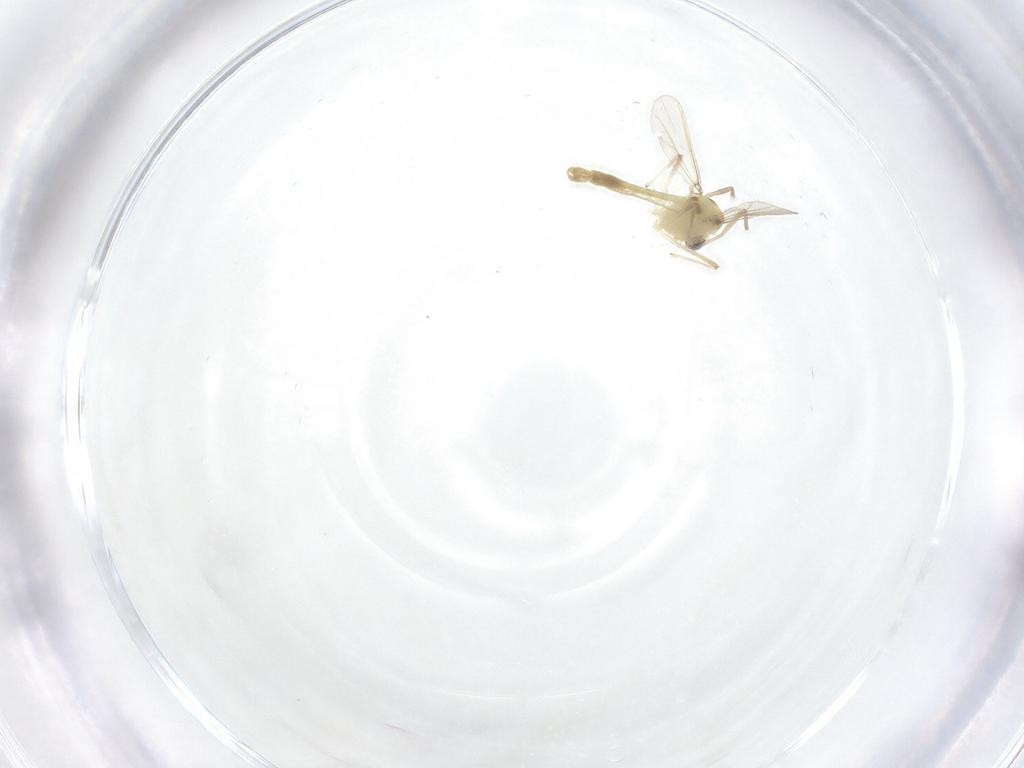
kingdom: Animalia
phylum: Arthropoda
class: Insecta
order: Diptera
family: Chironomidae
